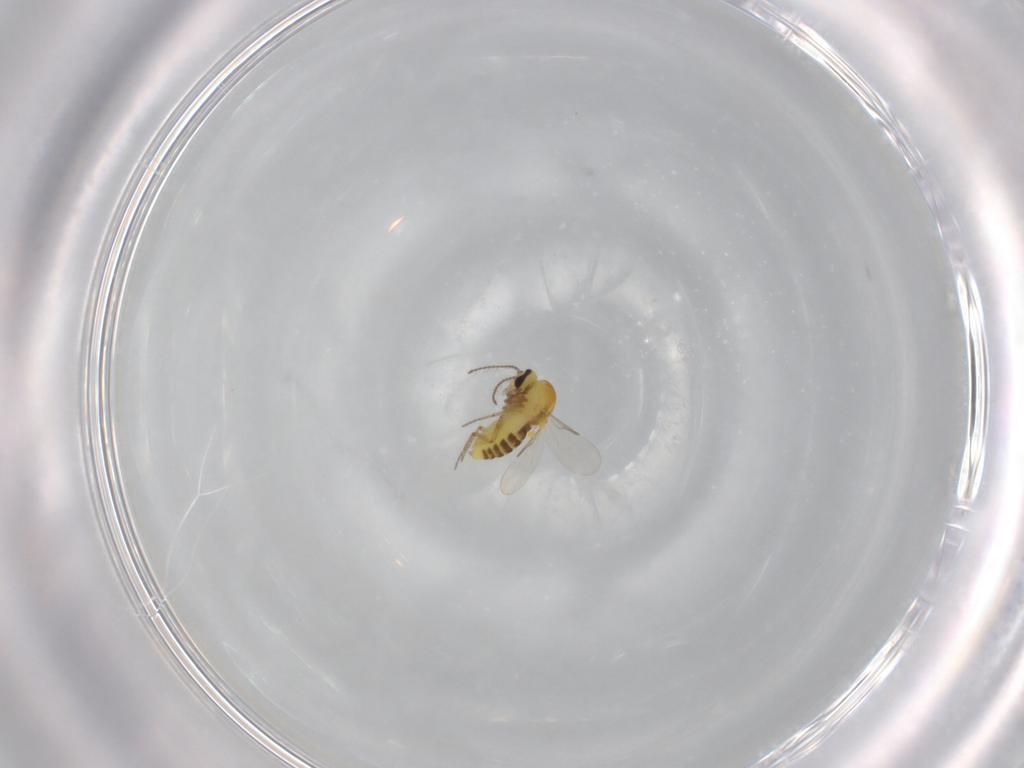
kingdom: Animalia
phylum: Arthropoda
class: Insecta
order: Diptera
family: Ceratopogonidae
